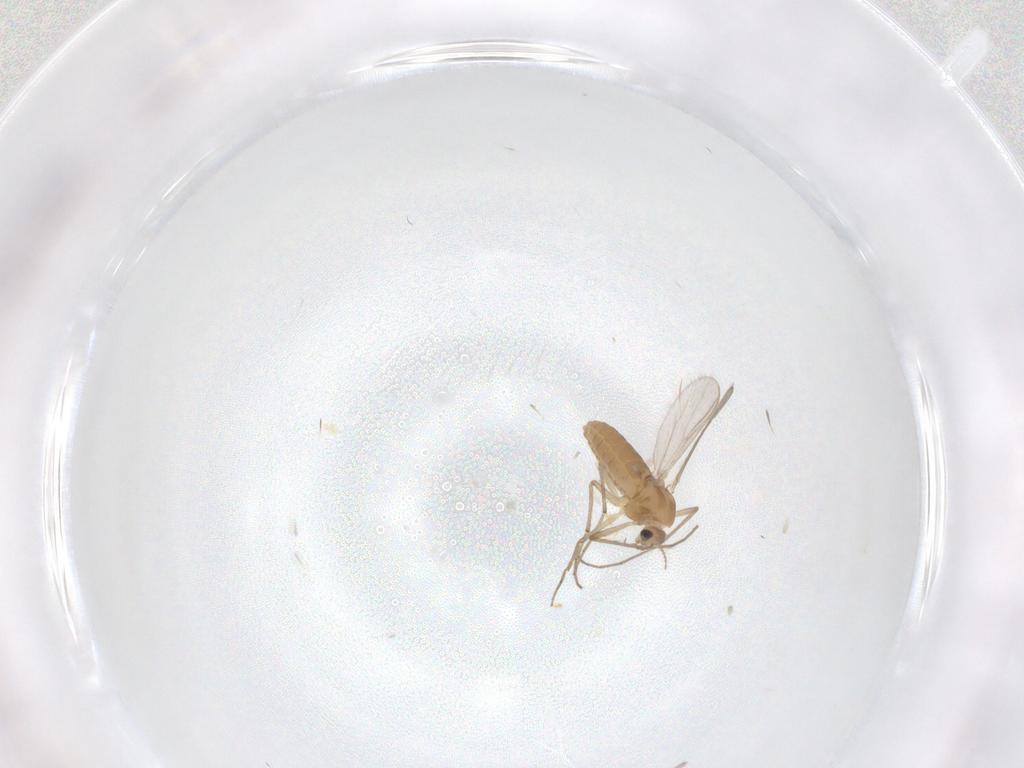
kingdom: Animalia
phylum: Arthropoda
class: Insecta
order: Diptera
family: Chironomidae
